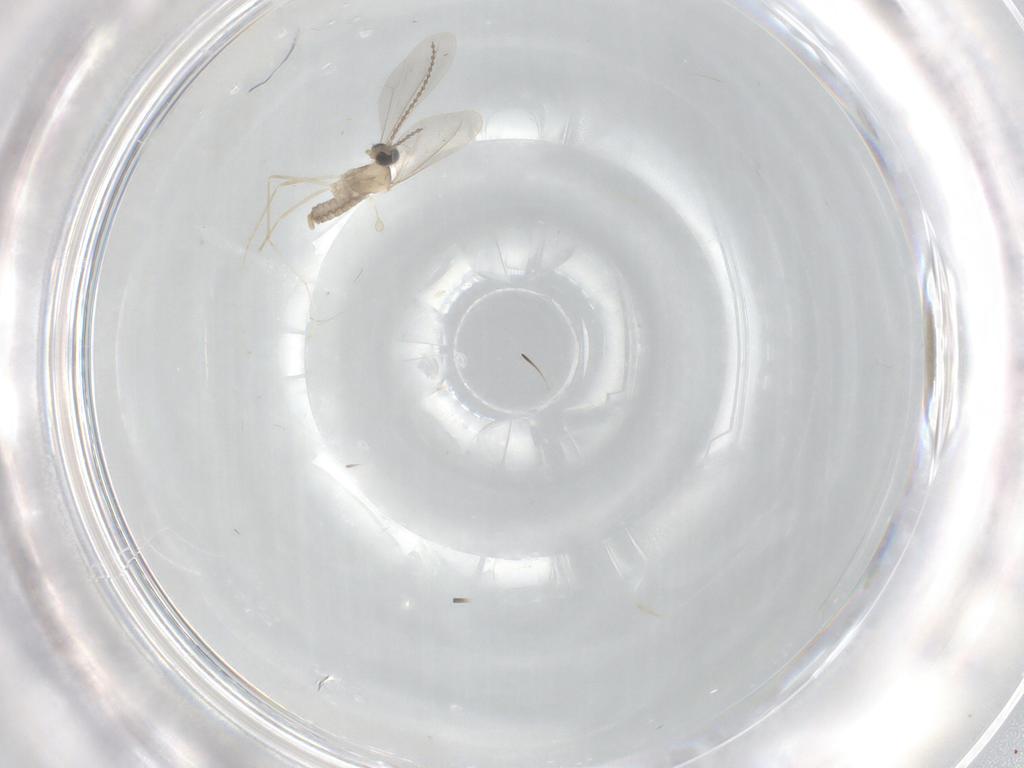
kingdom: Animalia
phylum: Arthropoda
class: Insecta
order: Diptera
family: Cecidomyiidae
